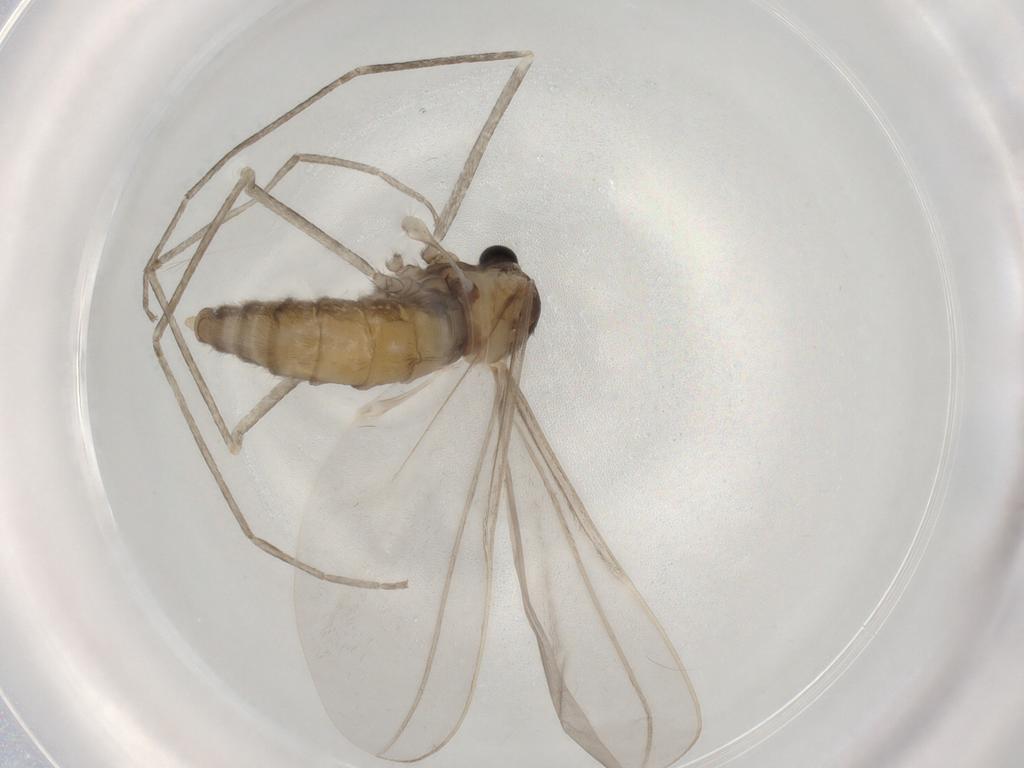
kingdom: Animalia
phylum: Arthropoda
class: Insecta
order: Diptera
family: Cecidomyiidae
